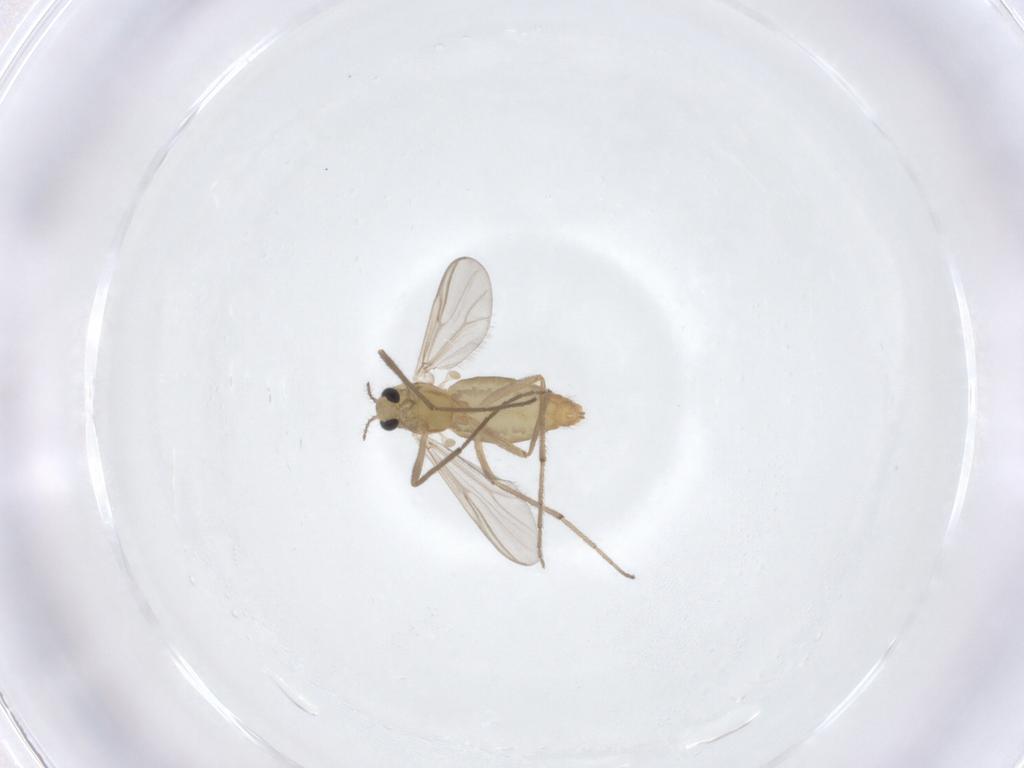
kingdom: Animalia
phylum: Arthropoda
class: Insecta
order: Diptera
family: Chironomidae
